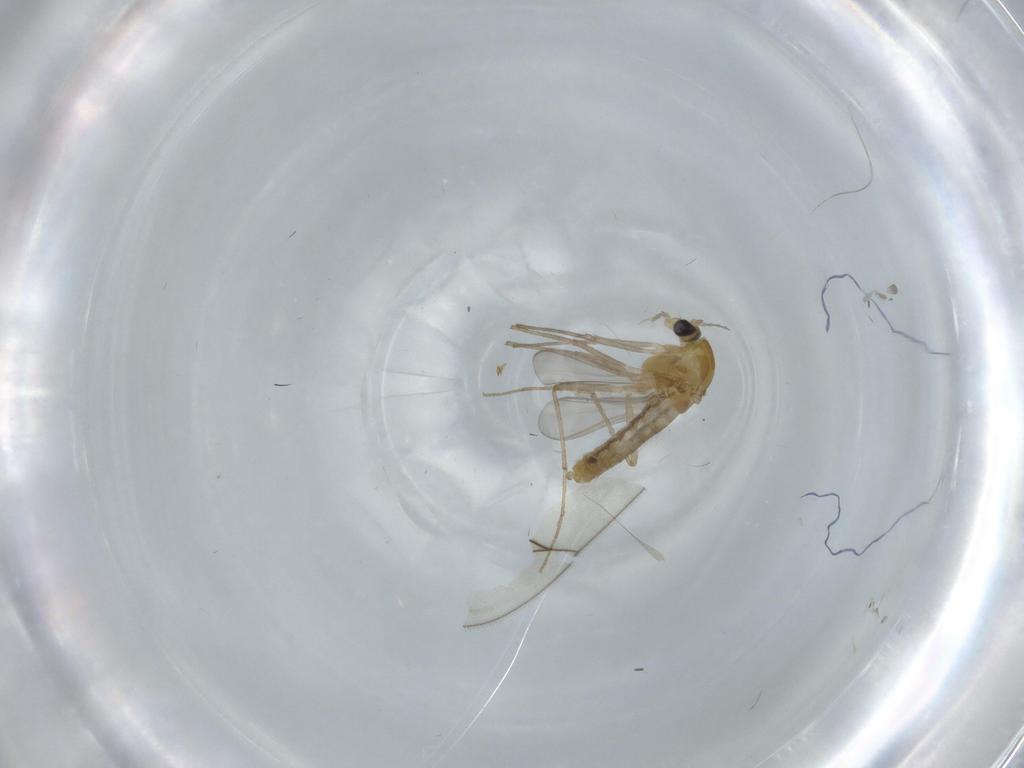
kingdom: Animalia
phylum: Arthropoda
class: Insecta
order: Diptera
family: Chironomidae
